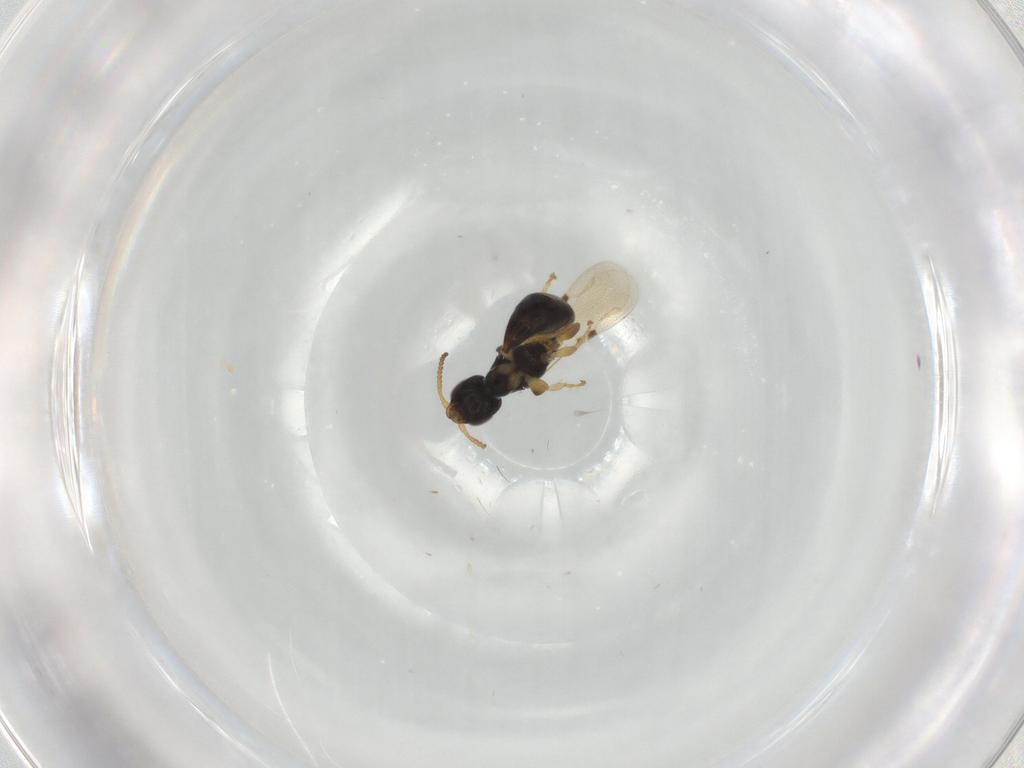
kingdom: Animalia
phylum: Arthropoda
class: Insecta
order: Hymenoptera
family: Bethylidae
